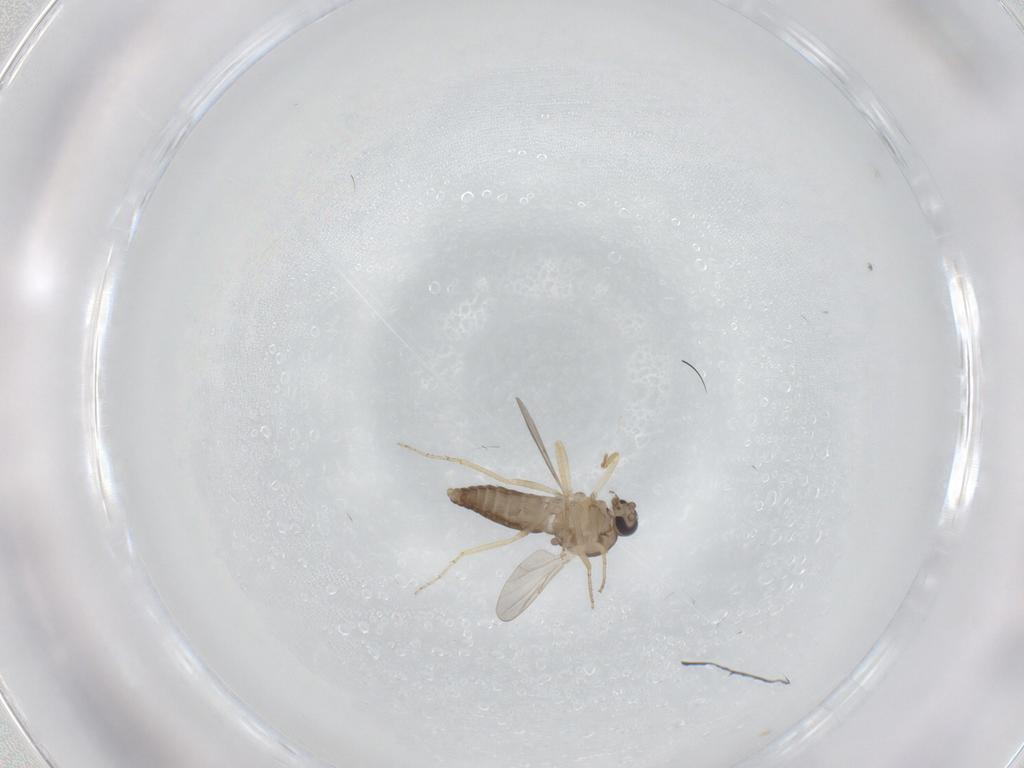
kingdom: Animalia
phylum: Arthropoda
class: Insecta
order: Diptera
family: Ceratopogonidae
